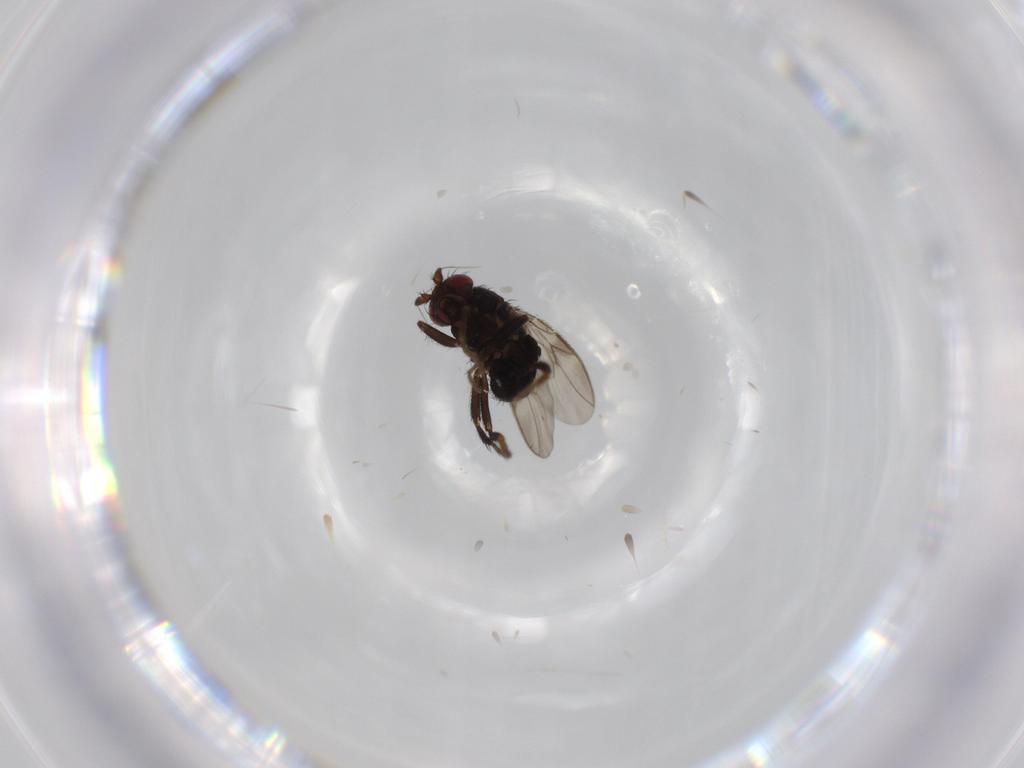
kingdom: Animalia
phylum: Arthropoda
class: Insecta
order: Diptera
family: Sphaeroceridae
